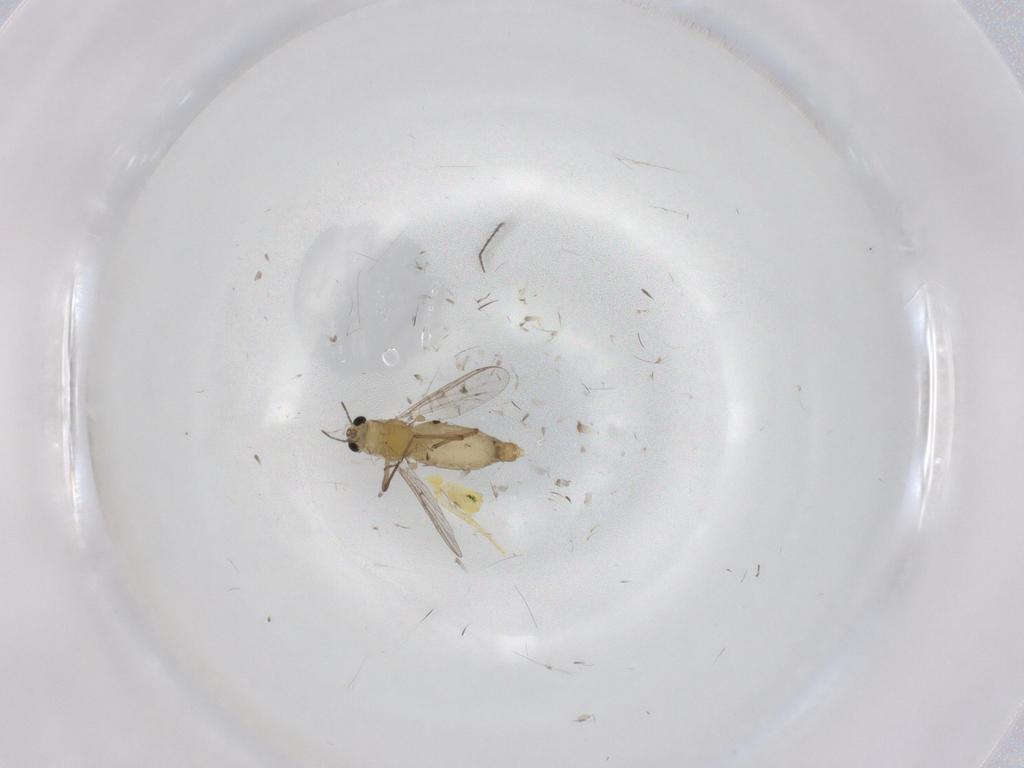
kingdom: Animalia
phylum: Arthropoda
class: Insecta
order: Diptera
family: Chironomidae
